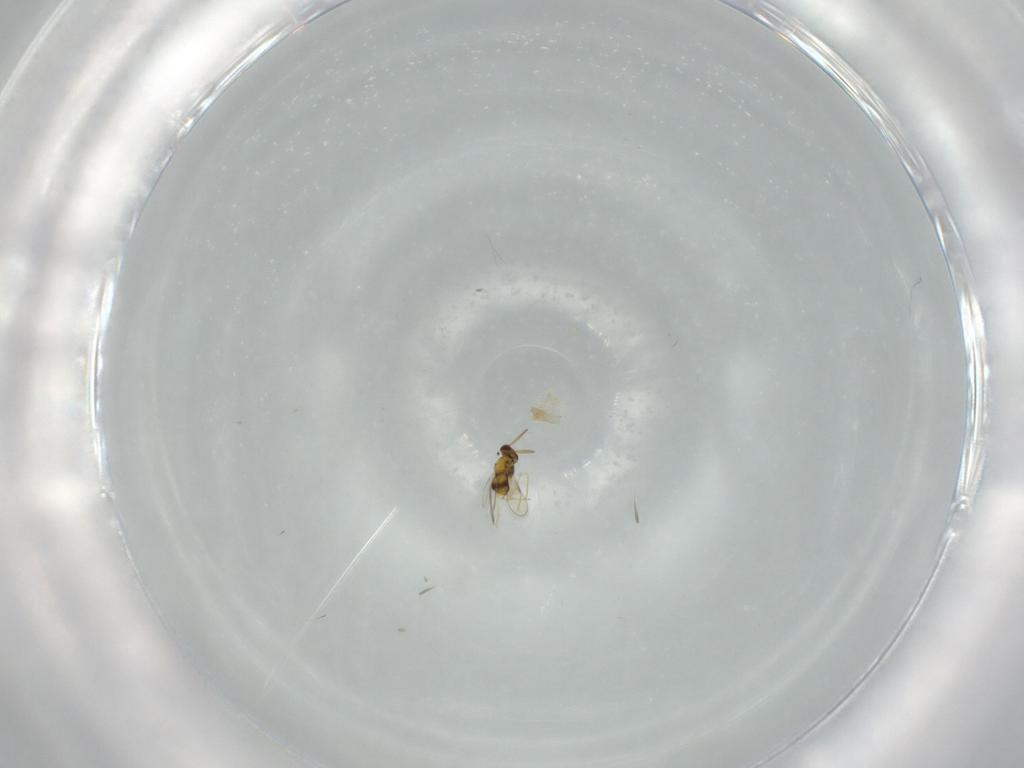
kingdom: Animalia
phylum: Arthropoda
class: Insecta
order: Hymenoptera
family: Aphelinidae
